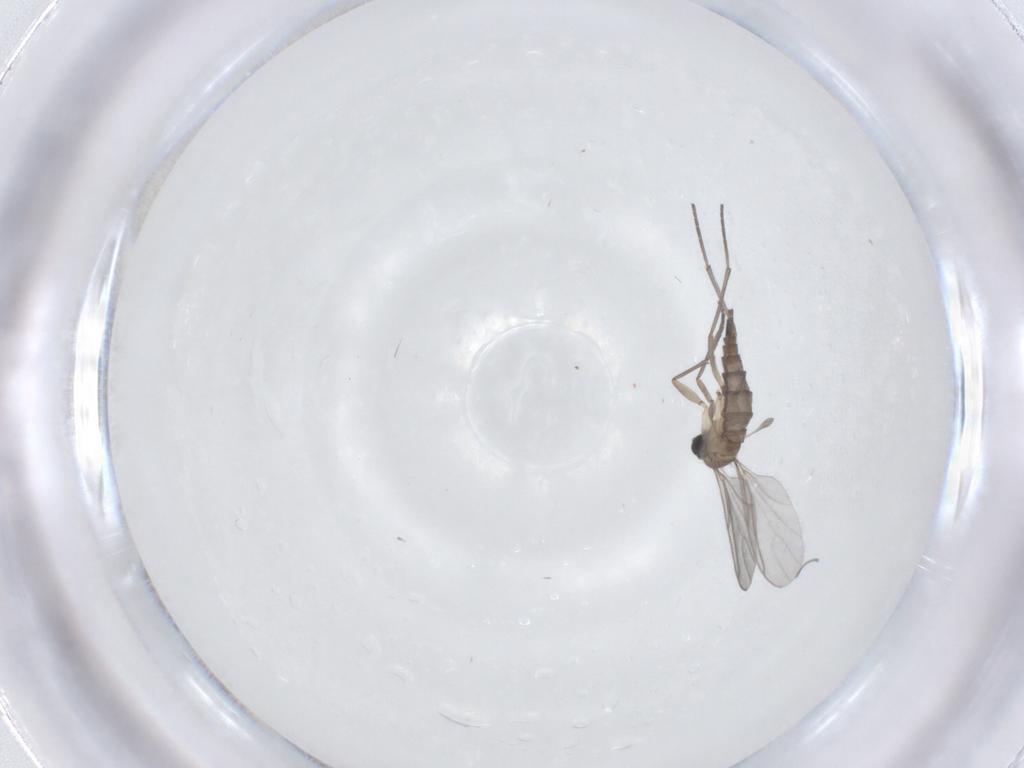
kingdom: Animalia
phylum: Arthropoda
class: Insecta
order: Diptera
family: Sciaridae
